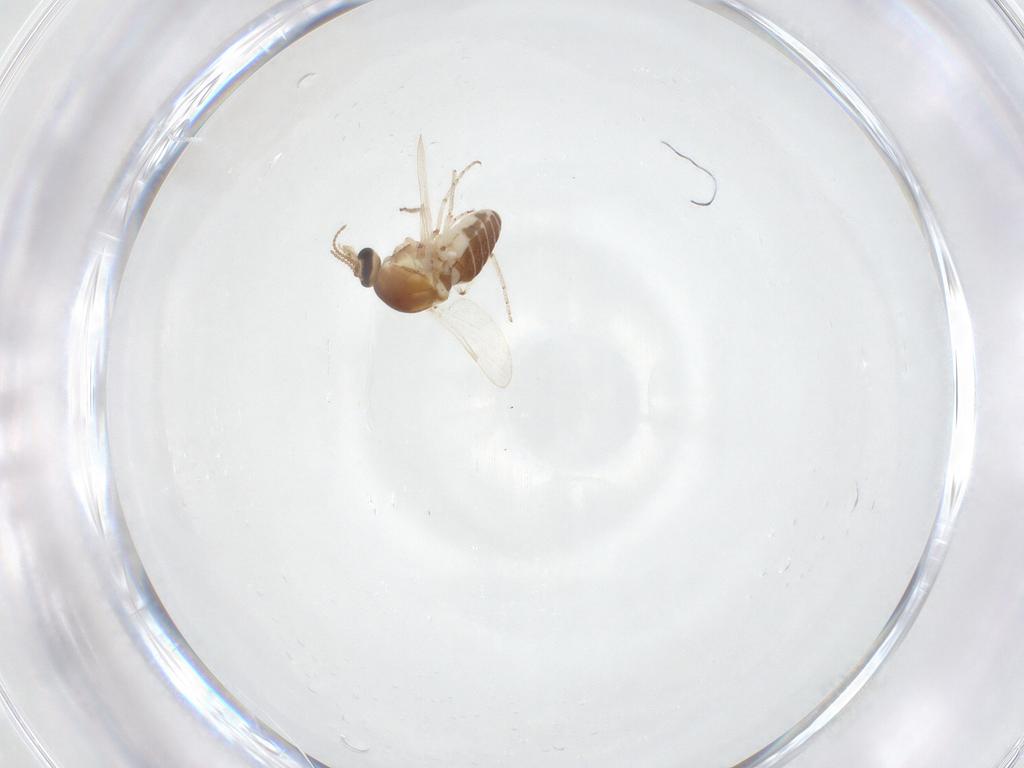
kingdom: Animalia
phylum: Arthropoda
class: Insecta
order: Diptera
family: Ceratopogonidae
